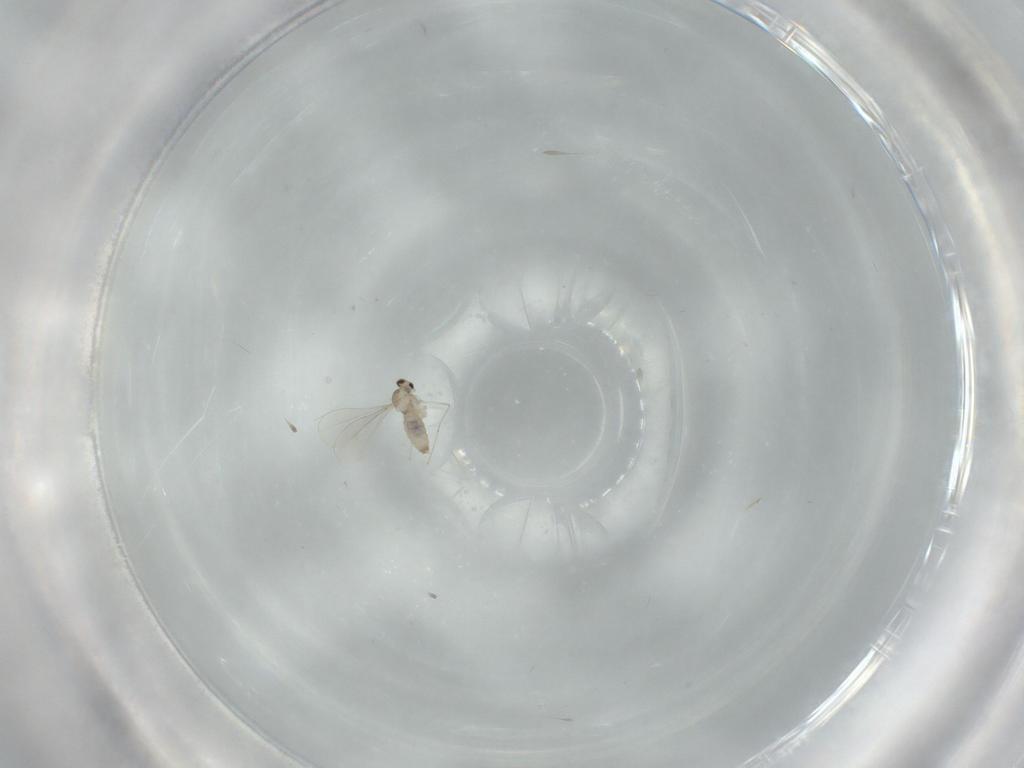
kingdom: Animalia
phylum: Arthropoda
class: Insecta
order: Diptera
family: Cecidomyiidae
